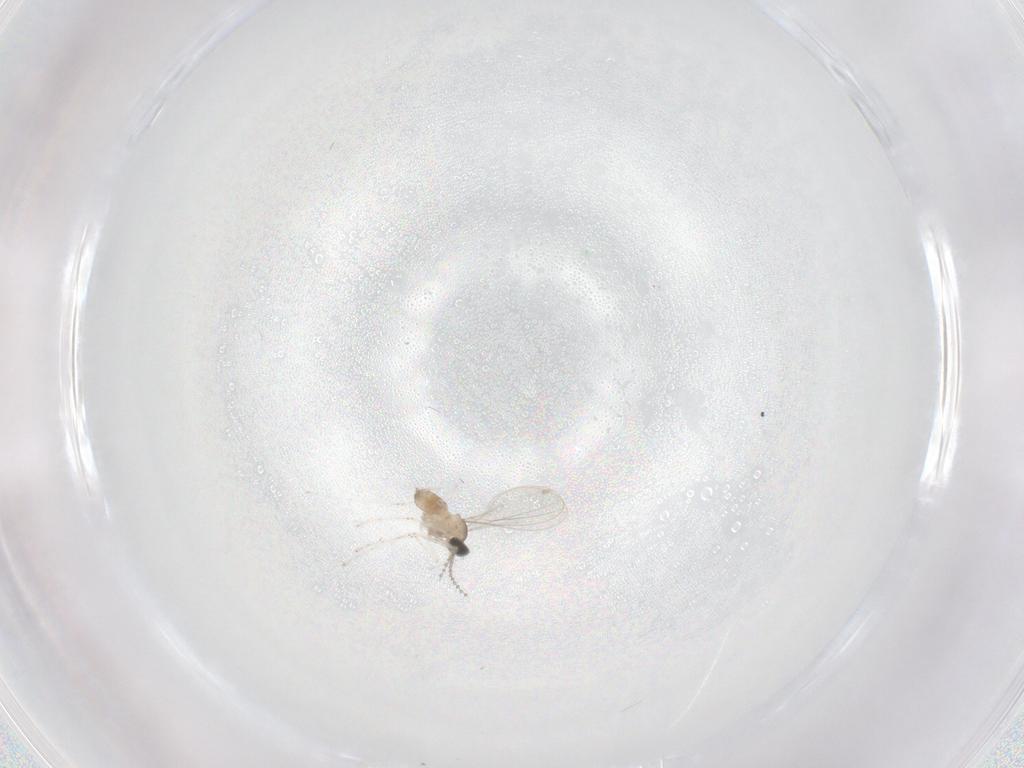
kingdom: Animalia
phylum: Arthropoda
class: Insecta
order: Diptera
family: Cecidomyiidae
